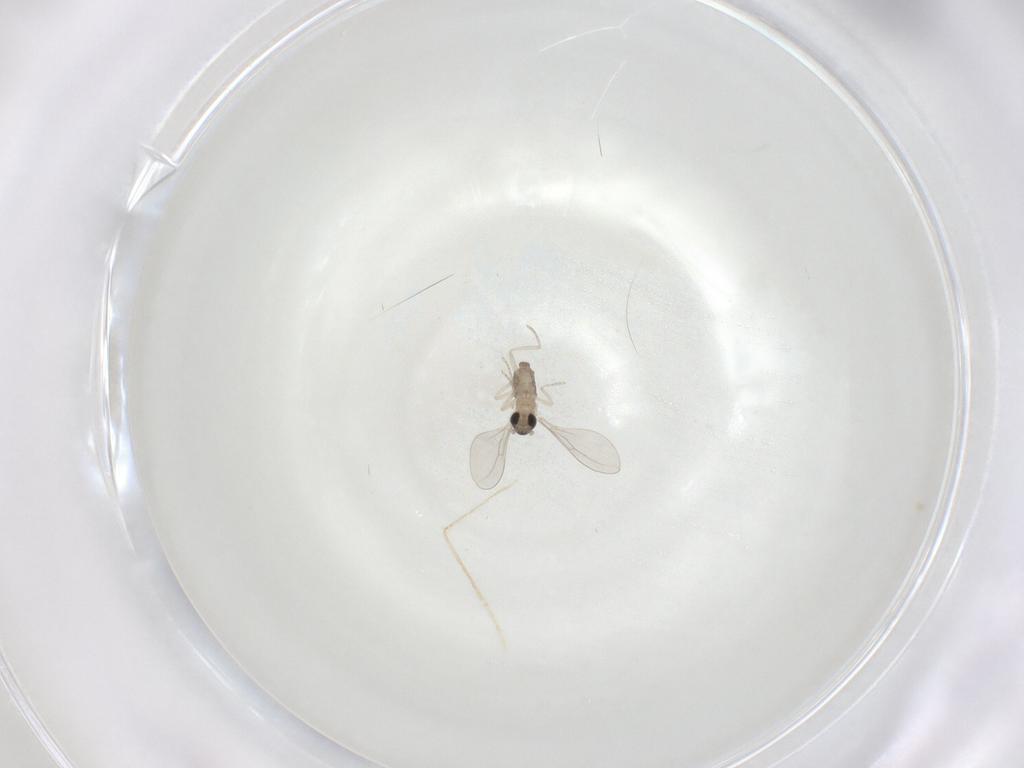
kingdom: Animalia
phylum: Arthropoda
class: Insecta
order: Diptera
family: Cecidomyiidae
